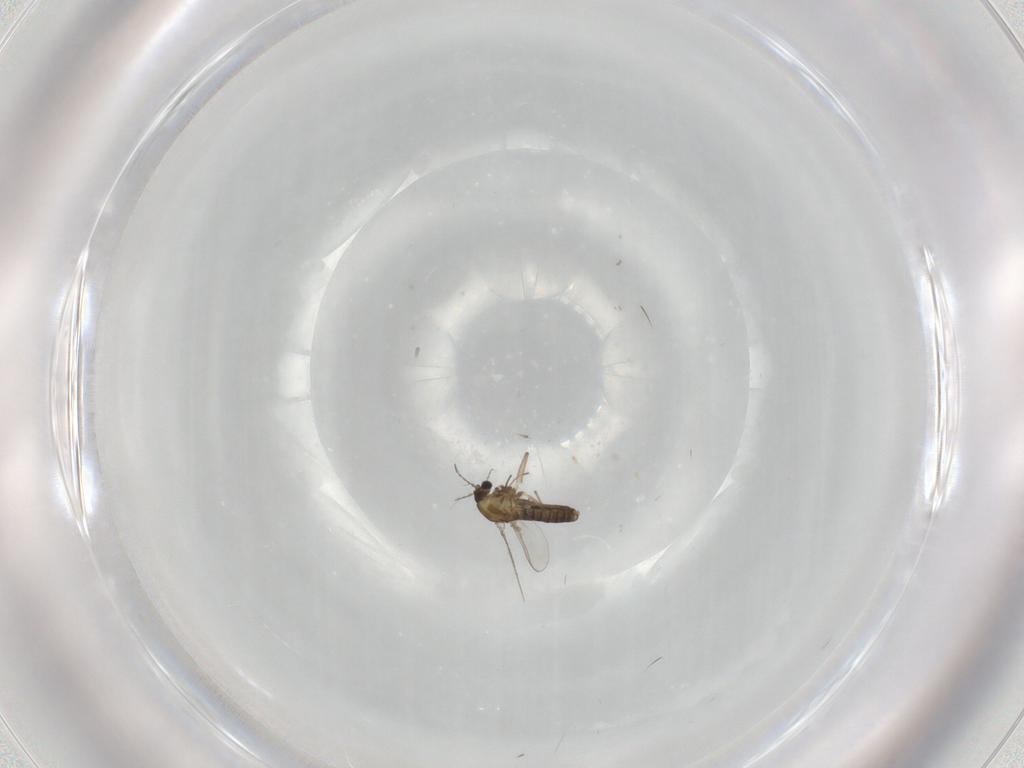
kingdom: Animalia
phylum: Arthropoda
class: Insecta
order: Diptera
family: Chironomidae
